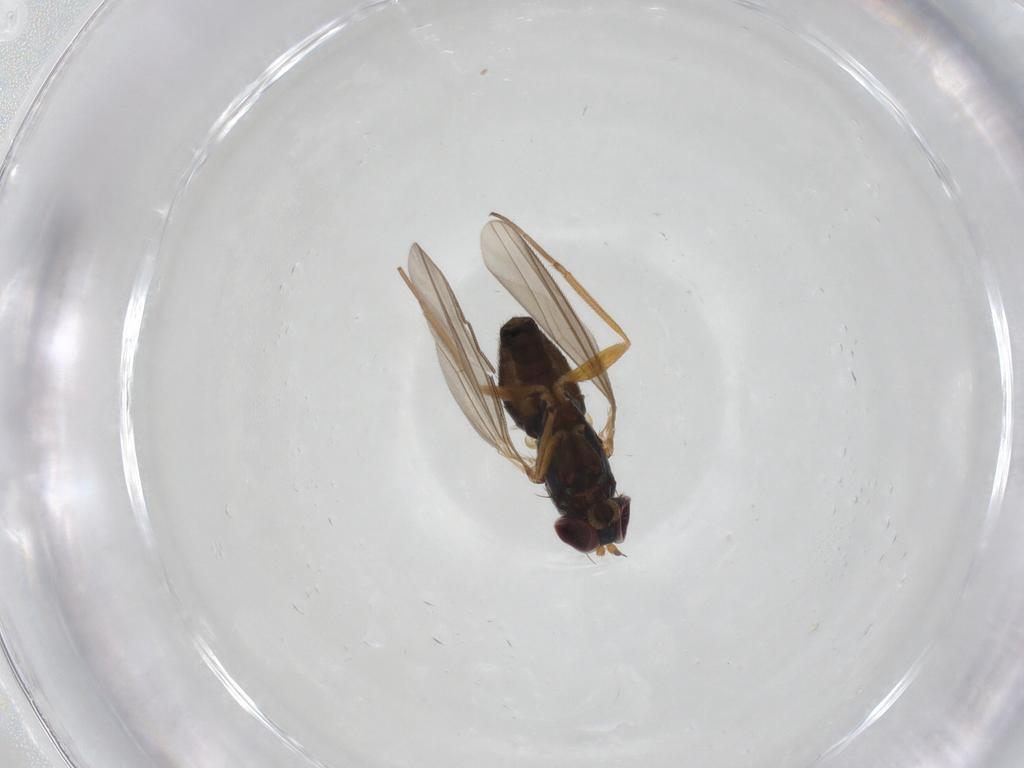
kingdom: Animalia
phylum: Arthropoda
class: Insecta
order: Diptera
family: Dolichopodidae
